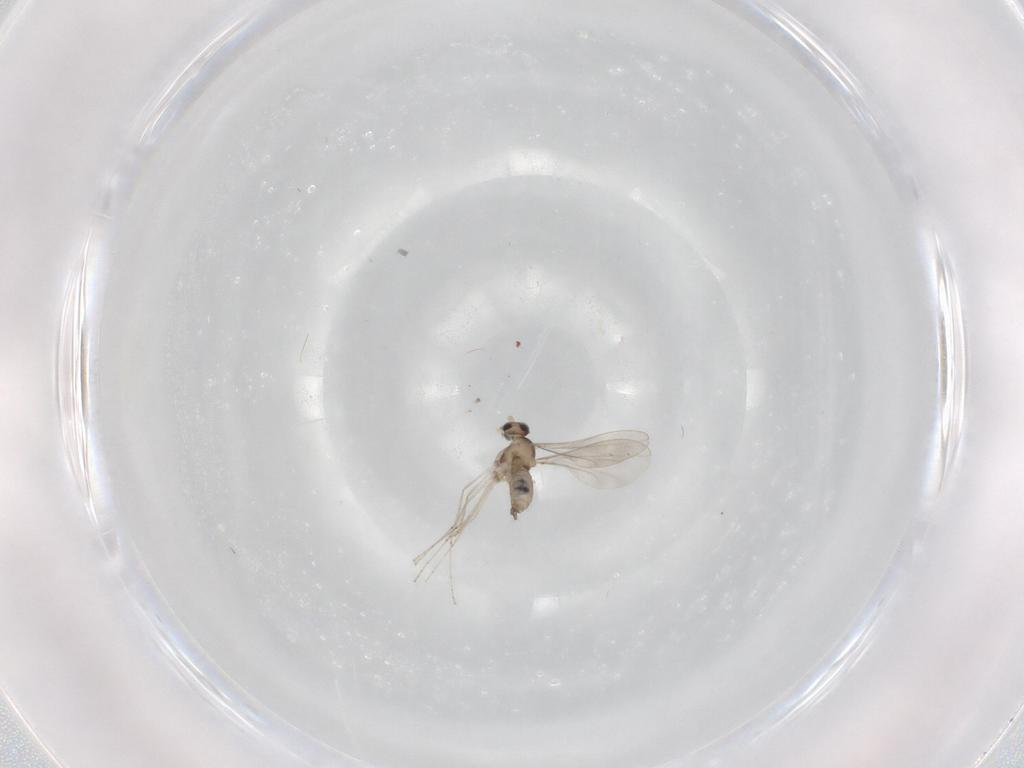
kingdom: Animalia
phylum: Arthropoda
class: Insecta
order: Diptera
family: Cecidomyiidae
